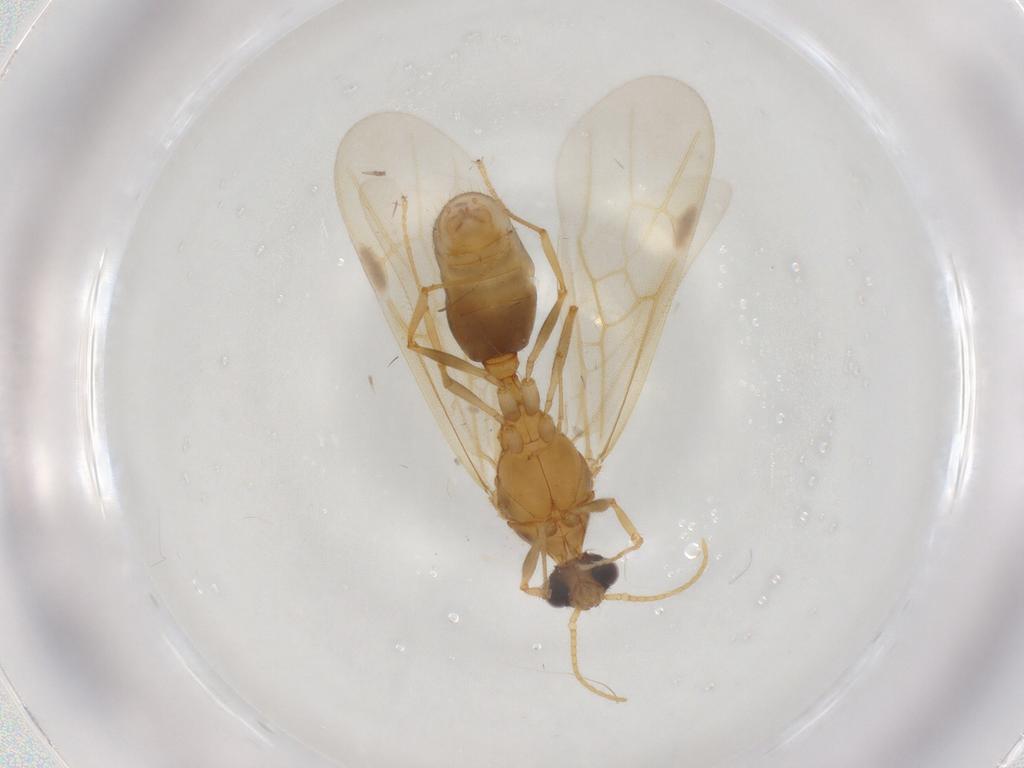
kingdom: Animalia
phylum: Arthropoda
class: Insecta
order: Hymenoptera
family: Formicidae
